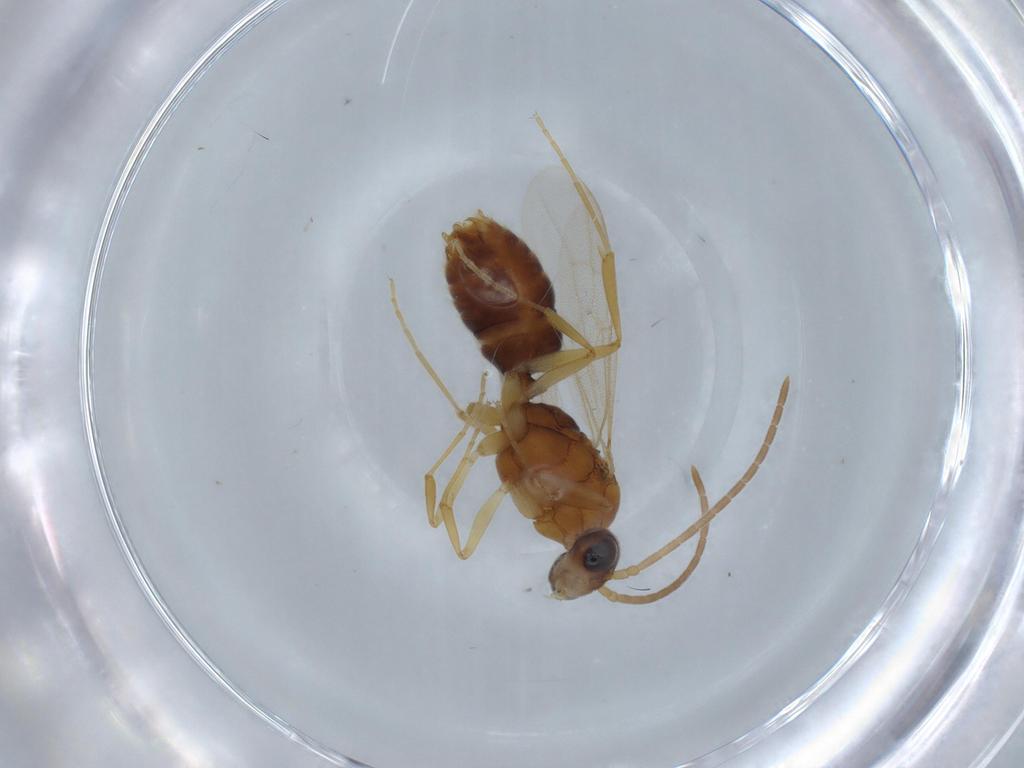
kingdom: Animalia
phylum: Arthropoda
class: Insecta
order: Hymenoptera
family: Formicidae
